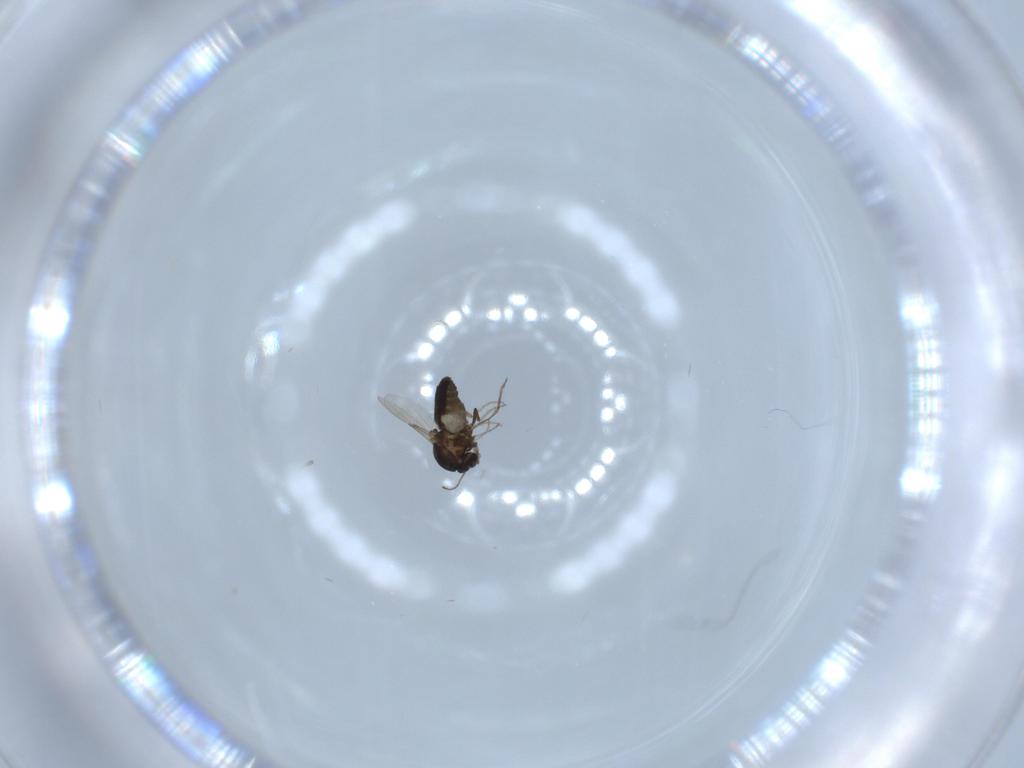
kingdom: Animalia
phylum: Arthropoda
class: Insecta
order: Diptera
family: Ceratopogonidae
